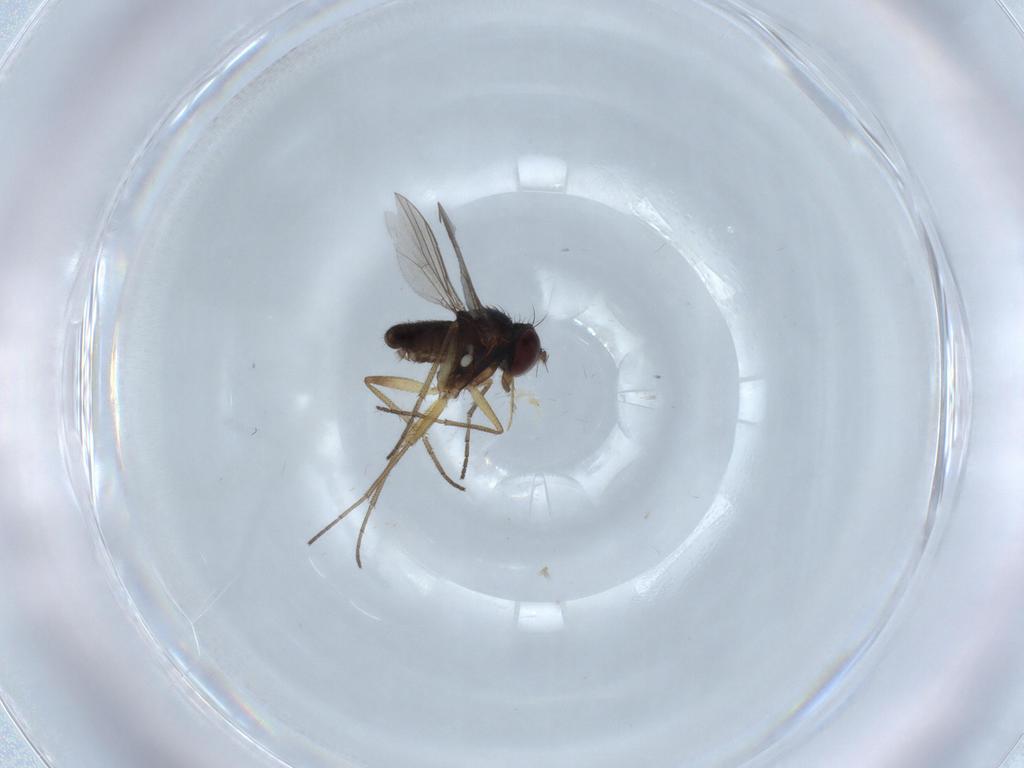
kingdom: Animalia
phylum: Arthropoda
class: Insecta
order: Diptera
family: Dolichopodidae
